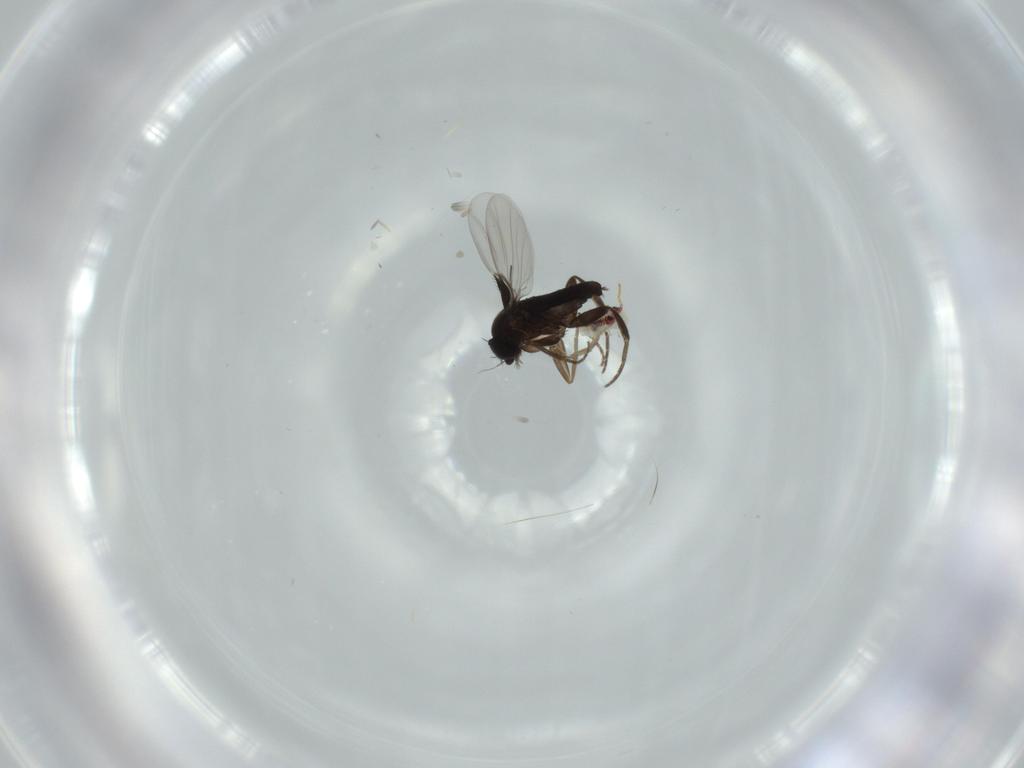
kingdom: Animalia
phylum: Arthropoda
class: Insecta
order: Diptera
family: Phoridae
